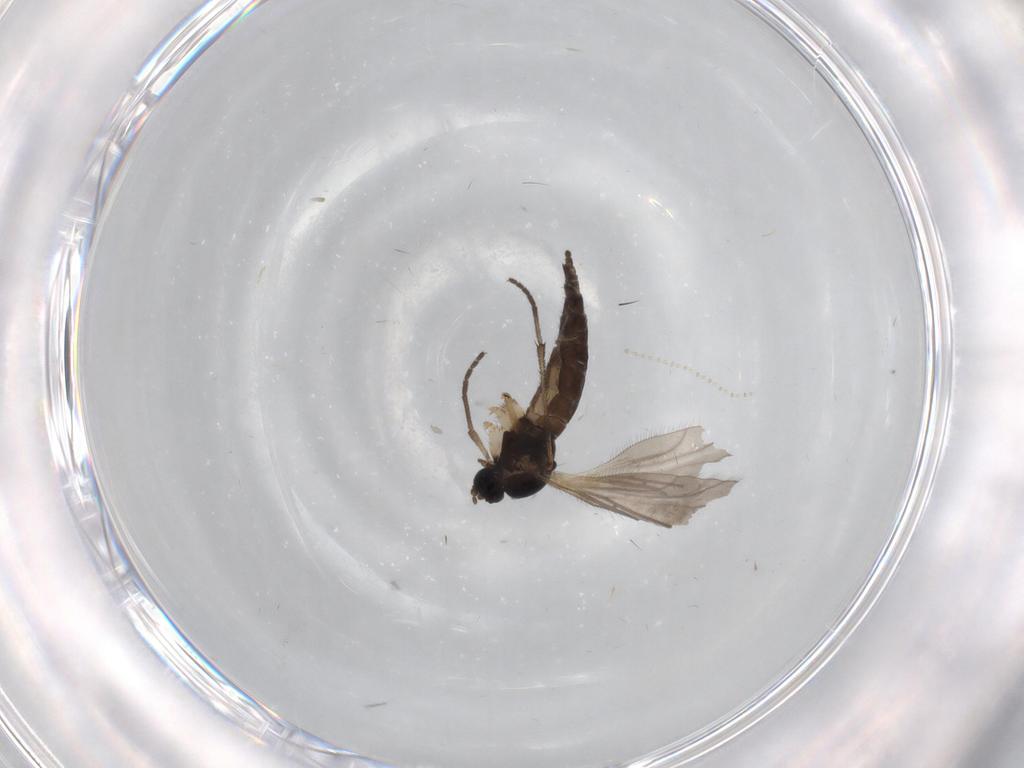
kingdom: Animalia
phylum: Arthropoda
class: Insecta
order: Diptera
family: Sciaridae
